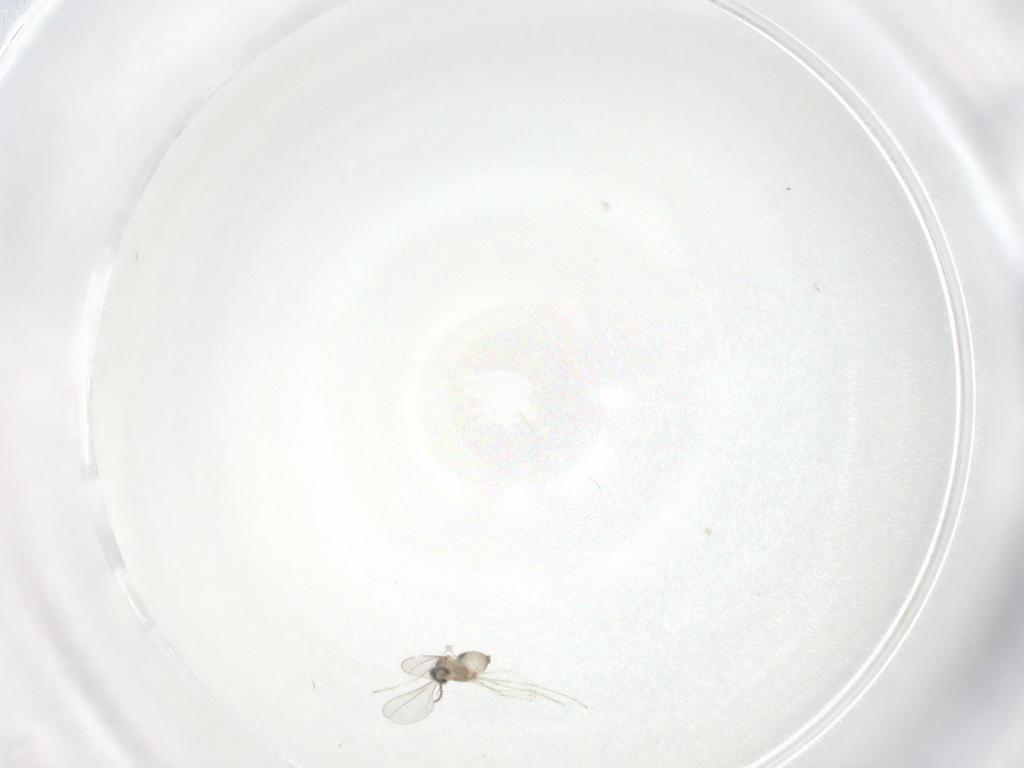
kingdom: Animalia
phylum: Arthropoda
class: Insecta
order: Diptera
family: Cecidomyiidae
